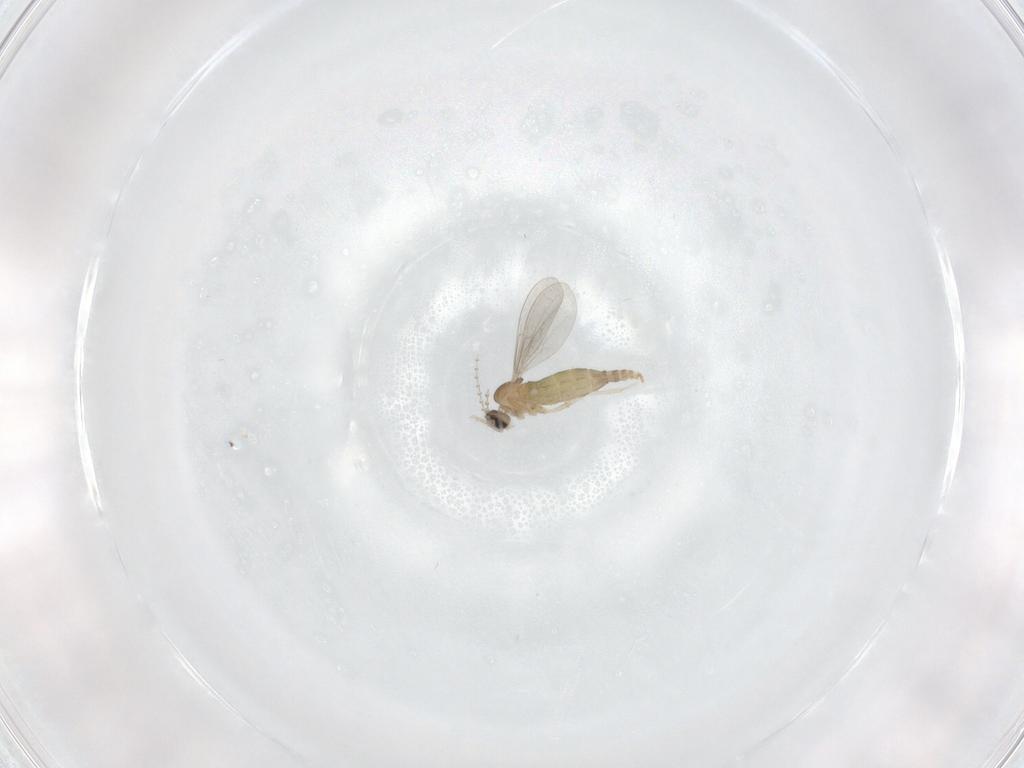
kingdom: Animalia
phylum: Arthropoda
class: Insecta
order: Diptera
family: Cecidomyiidae
